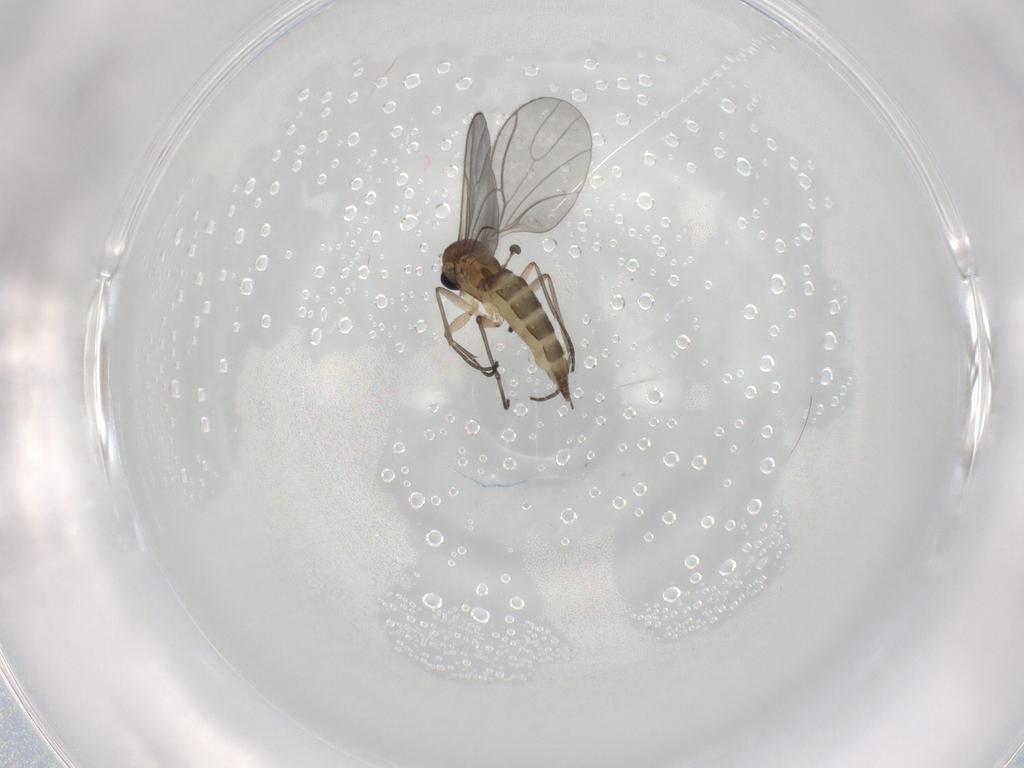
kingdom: Animalia
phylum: Arthropoda
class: Insecta
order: Diptera
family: Sciaridae
